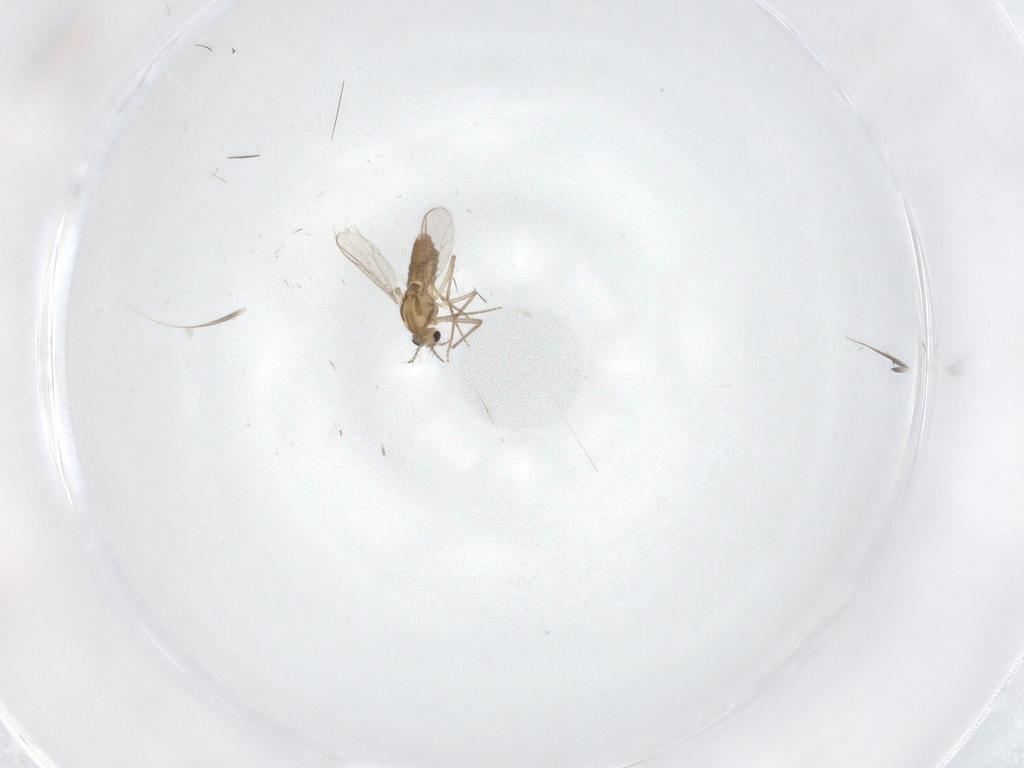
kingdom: Animalia
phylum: Arthropoda
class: Insecta
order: Diptera
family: Chironomidae
